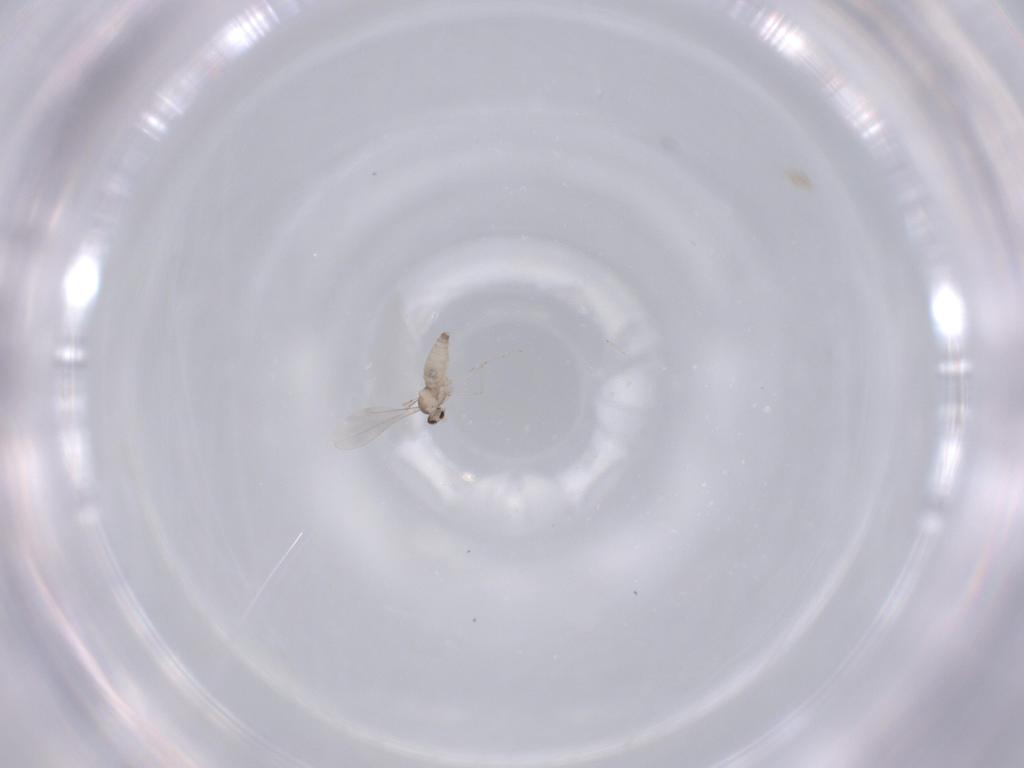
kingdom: Animalia
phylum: Arthropoda
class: Insecta
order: Diptera
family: Cecidomyiidae
